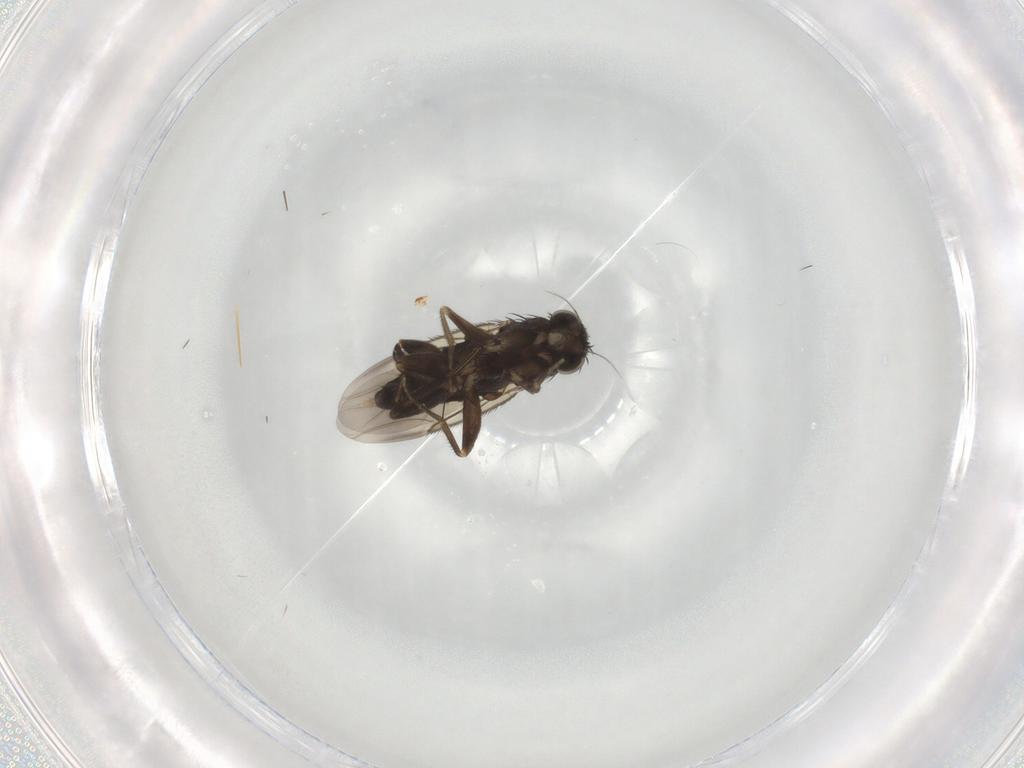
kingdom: Animalia
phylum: Arthropoda
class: Insecta
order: Diptera
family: Phoridae
